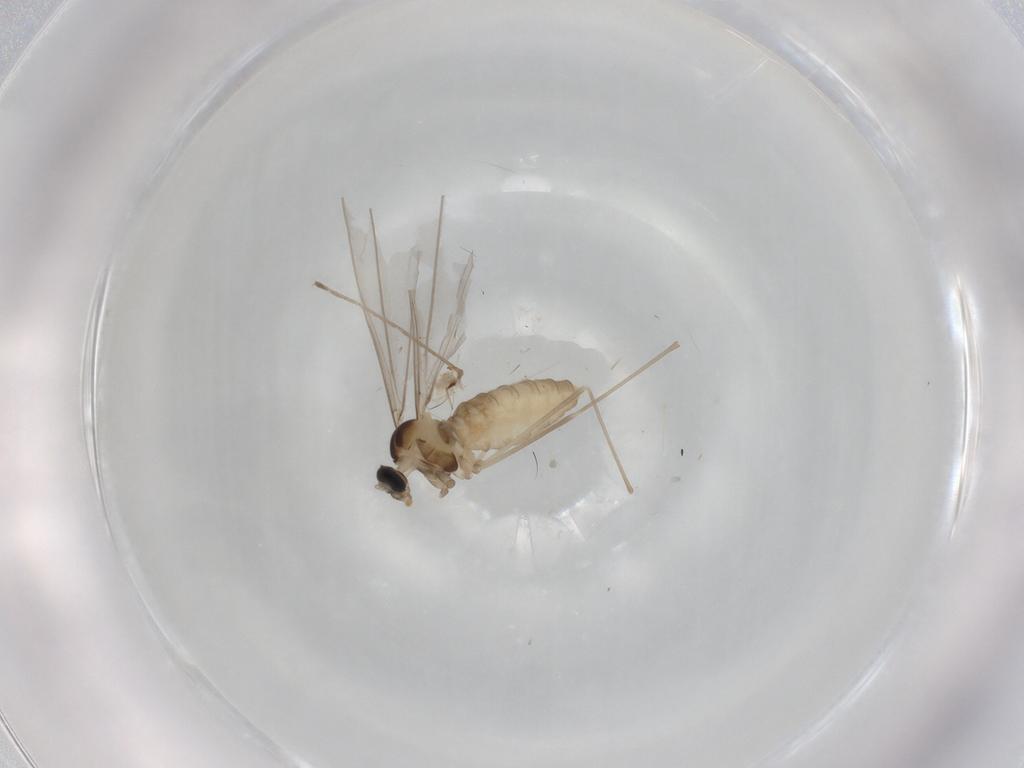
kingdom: Animalia
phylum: Arthropoda
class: Insecta
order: Diptera
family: Cecidomyiidae
